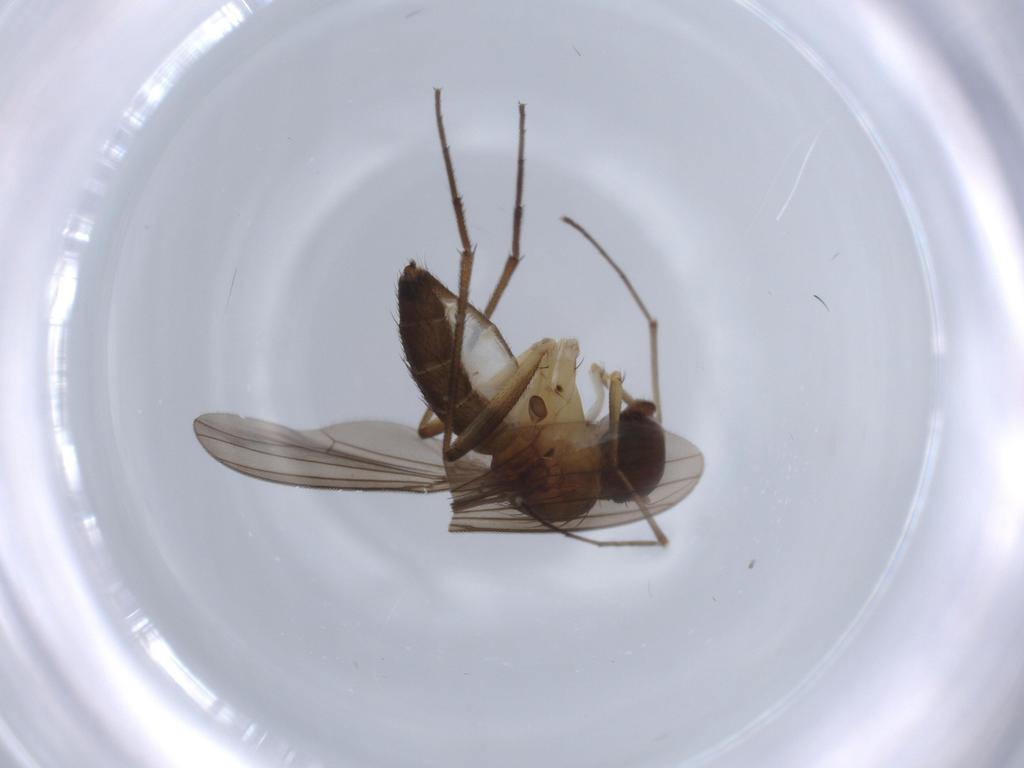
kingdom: Animalia
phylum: Arthropoda
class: Insecta
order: Diptera
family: Dolichopodidae
